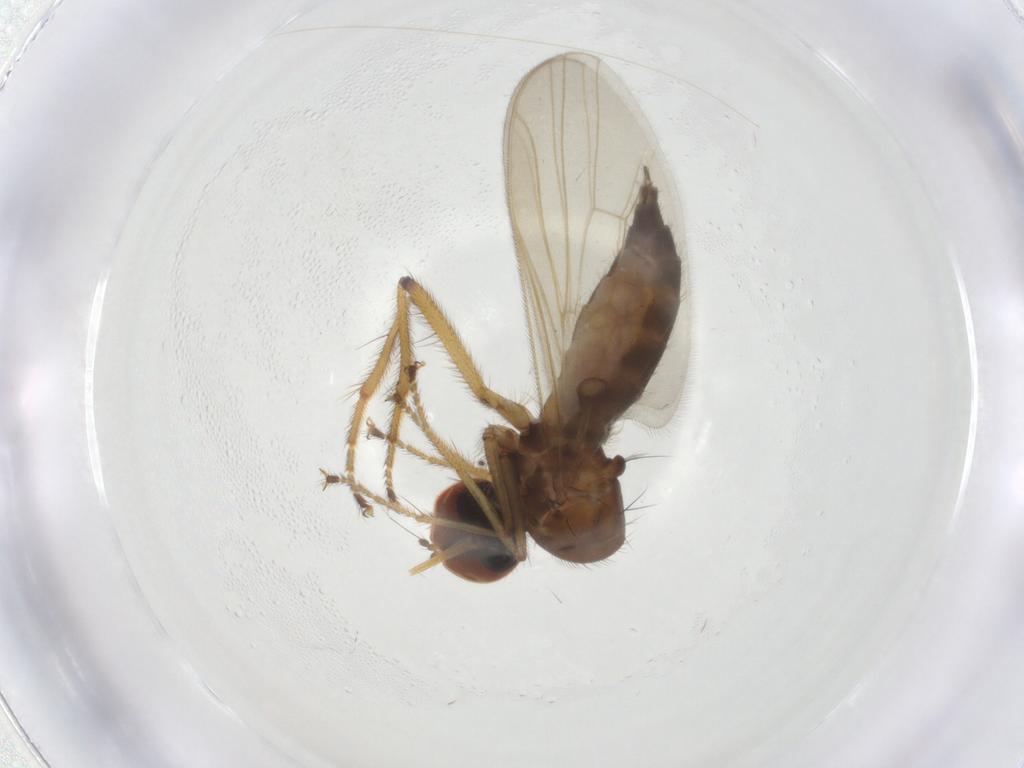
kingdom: Animalia
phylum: Arthropoda
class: Insecta
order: Diptera
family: Hybotidae
